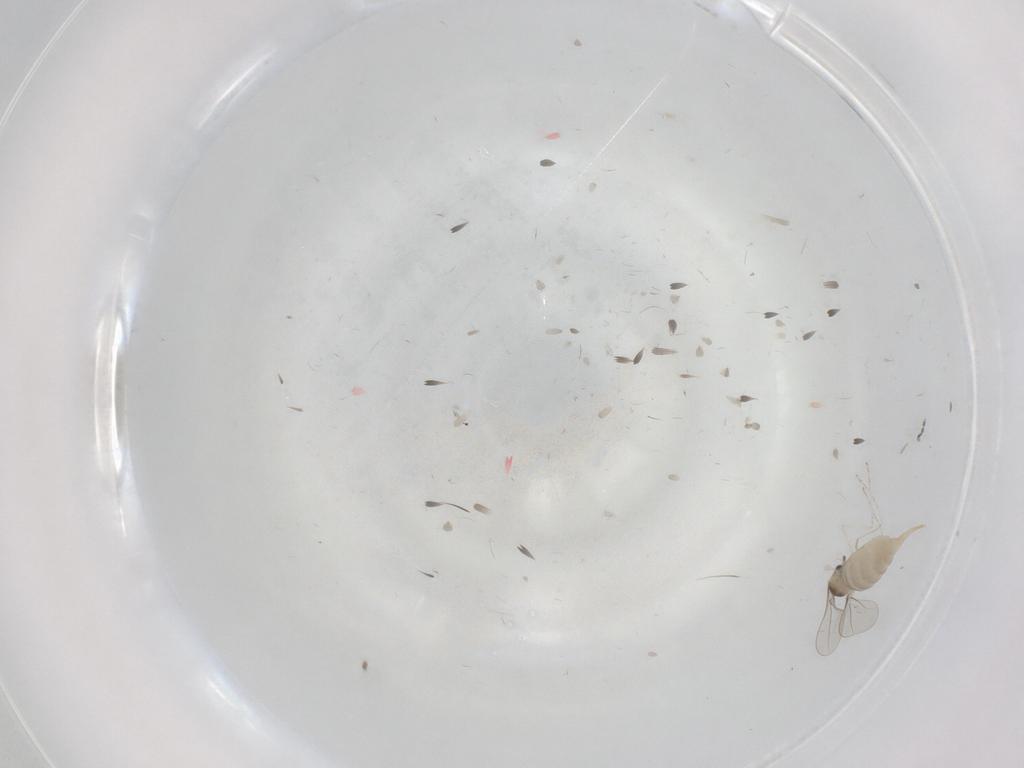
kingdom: Animalia
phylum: Arthropoda
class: Insecta
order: Diptera
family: Cecidomyiidae
